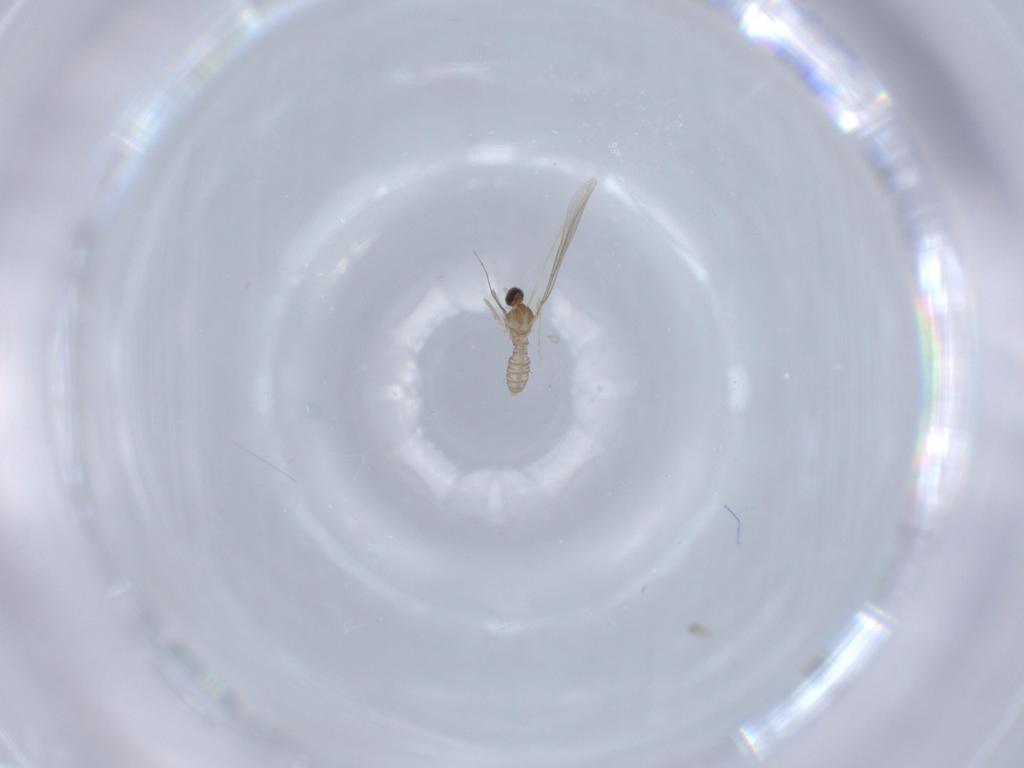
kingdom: Animalia
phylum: Arthropoda
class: Insecta
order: Diptera
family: Cecidomyiidae
